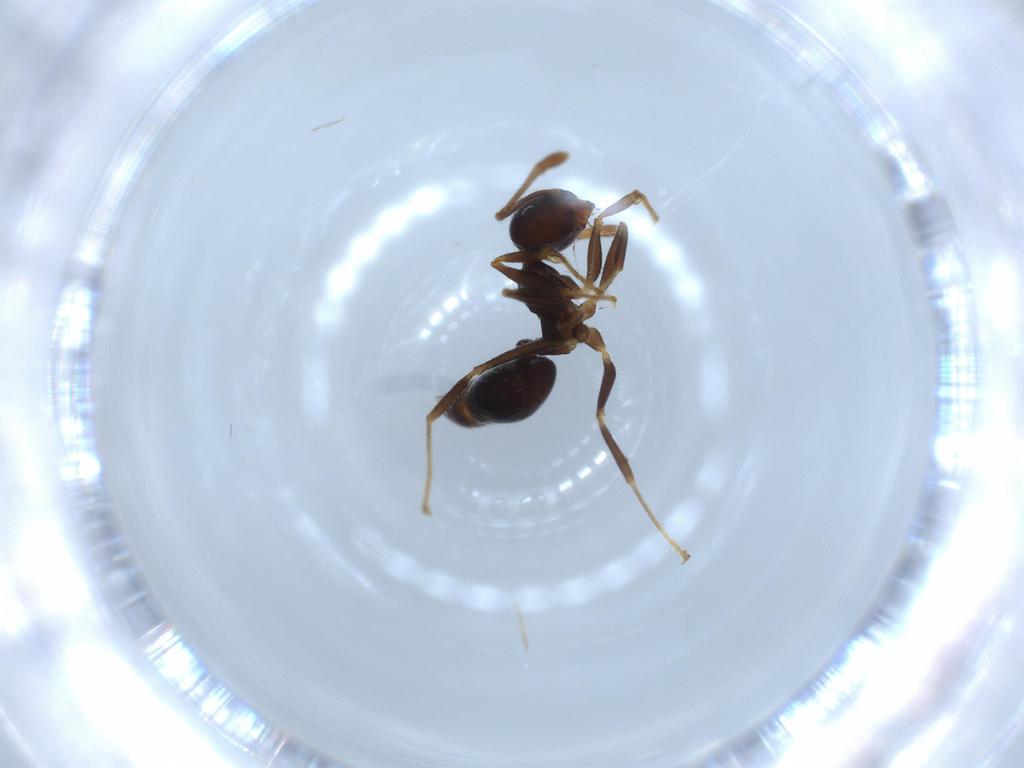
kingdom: Animalia
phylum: Arthropoda
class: Insecta
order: Hymenoptera
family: Formicidae
